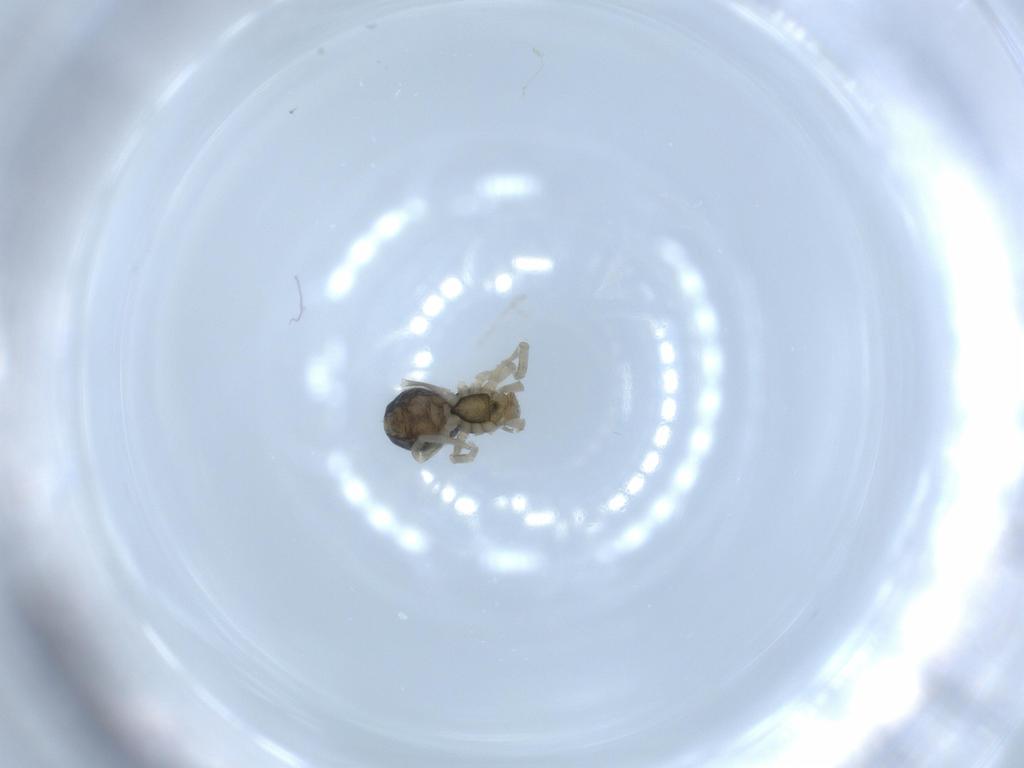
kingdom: Animalia
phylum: Arthropoda
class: Arachnida
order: Araneae
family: Dictynidae
